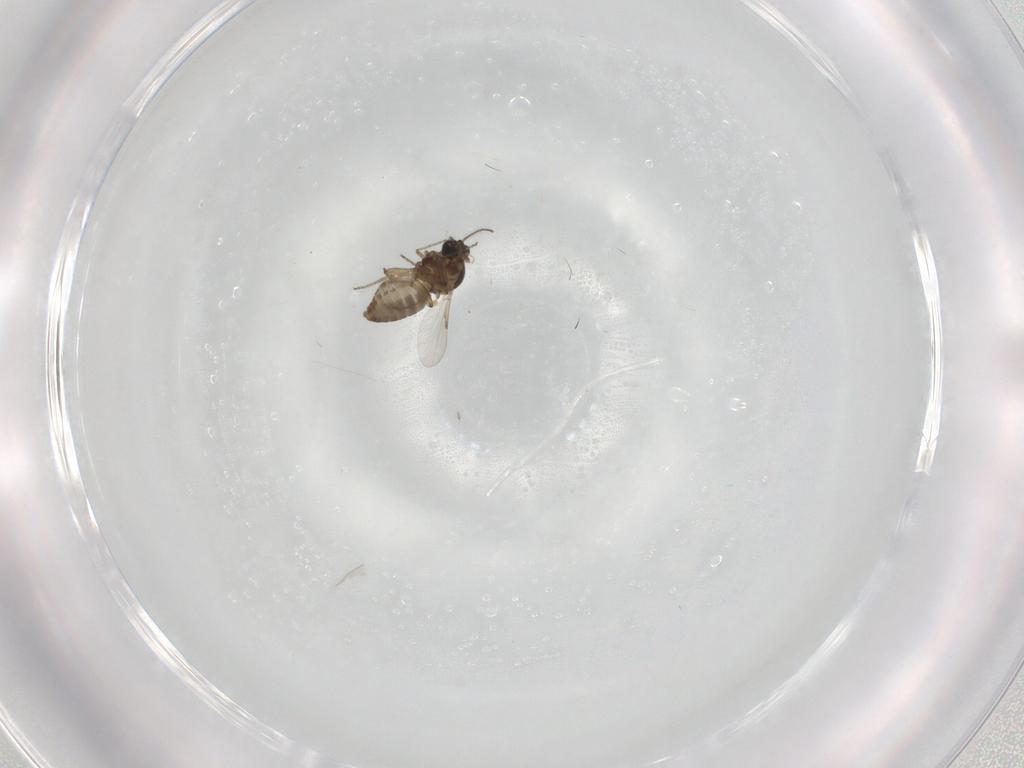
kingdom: Animalia
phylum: Arthropoda
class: Insecta
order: Diptera
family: Ceratopogonidae
